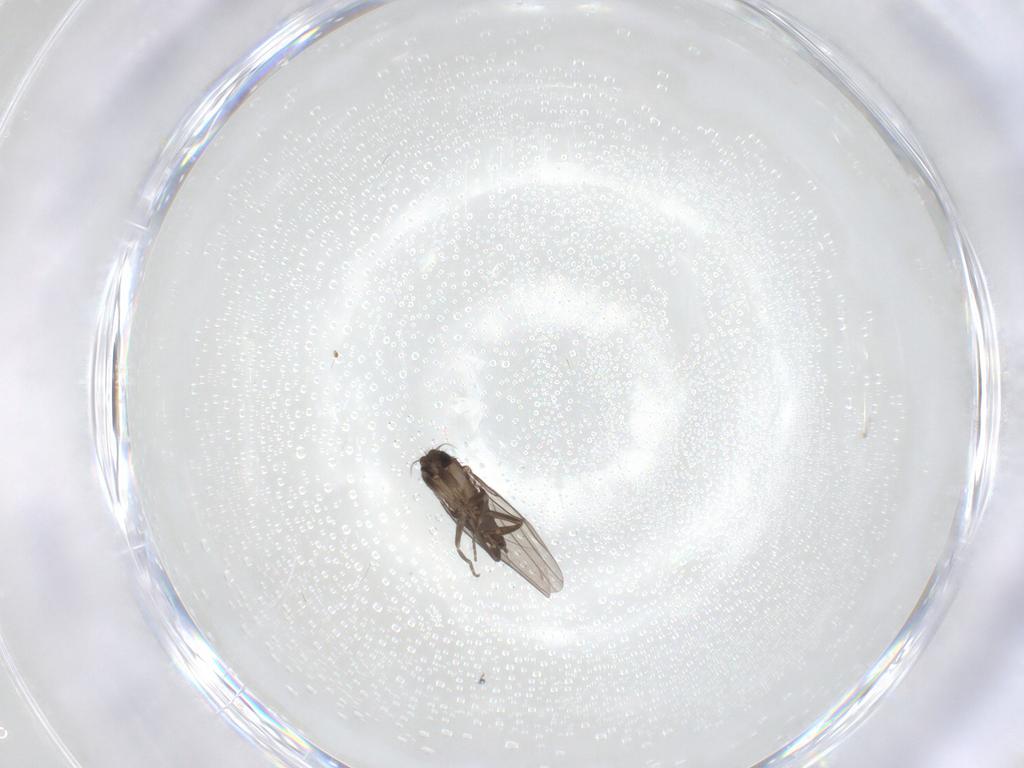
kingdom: Animalia
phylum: Arthropoda
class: Insecta
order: Diptera
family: Phoridae
